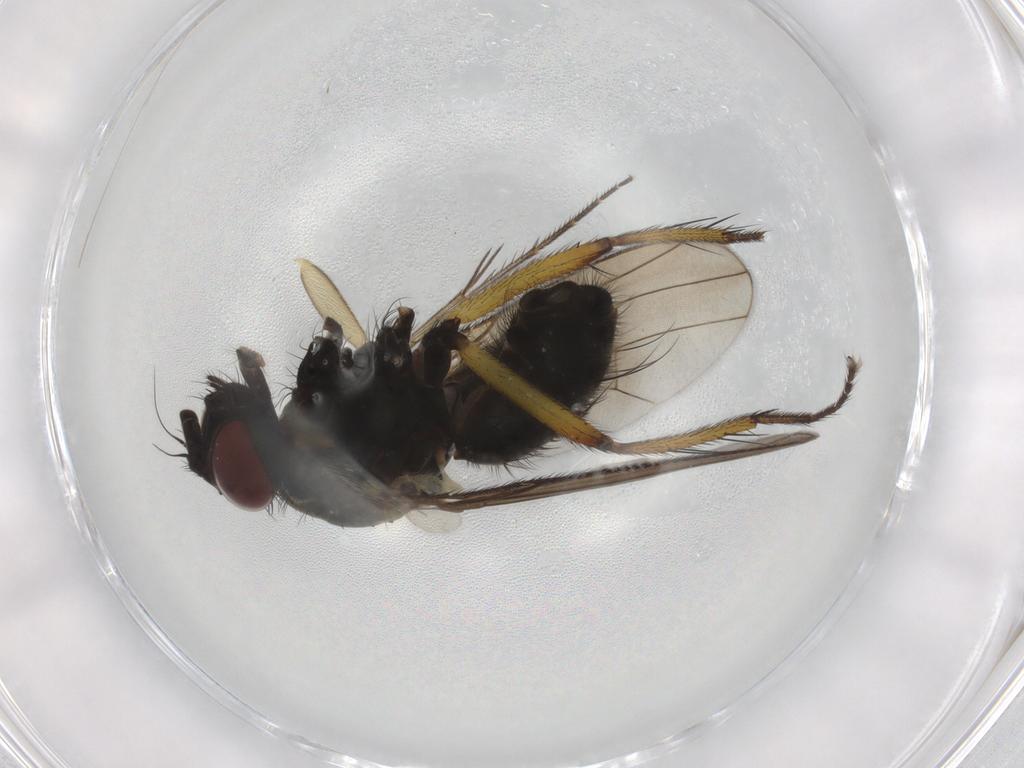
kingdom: Animalia
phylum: Arthropoda
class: Insecta
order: Diptera
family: Muscidae
